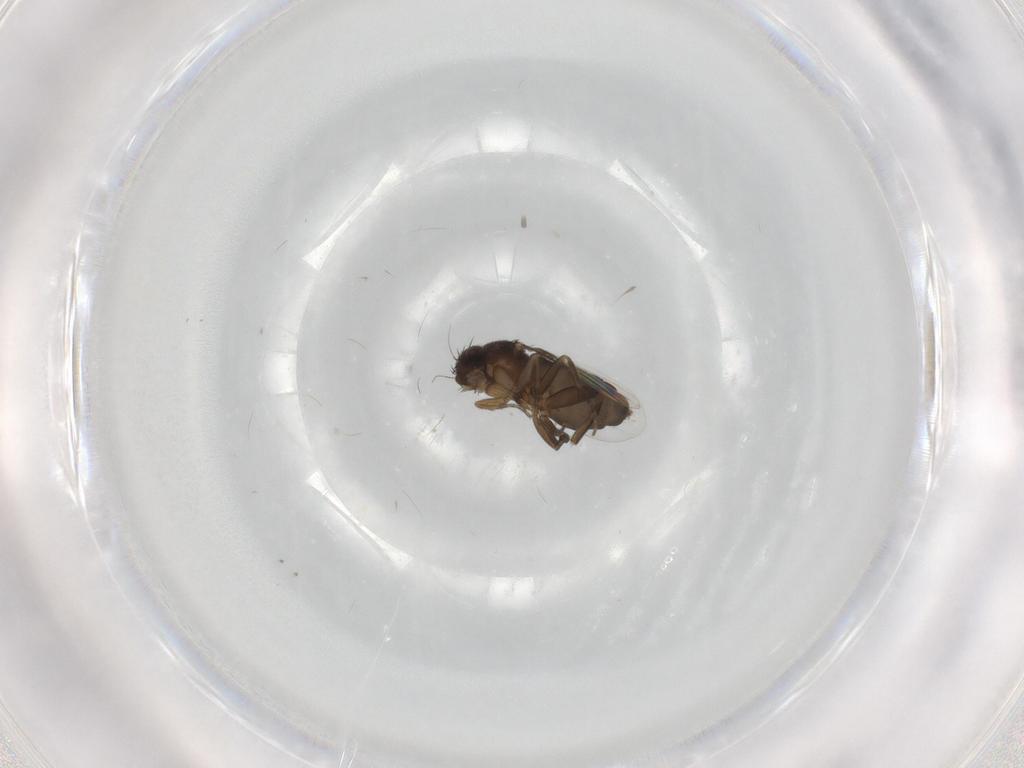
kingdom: Animalia
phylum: Arthropoda
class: Insecta
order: Diptera
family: Phoridae
